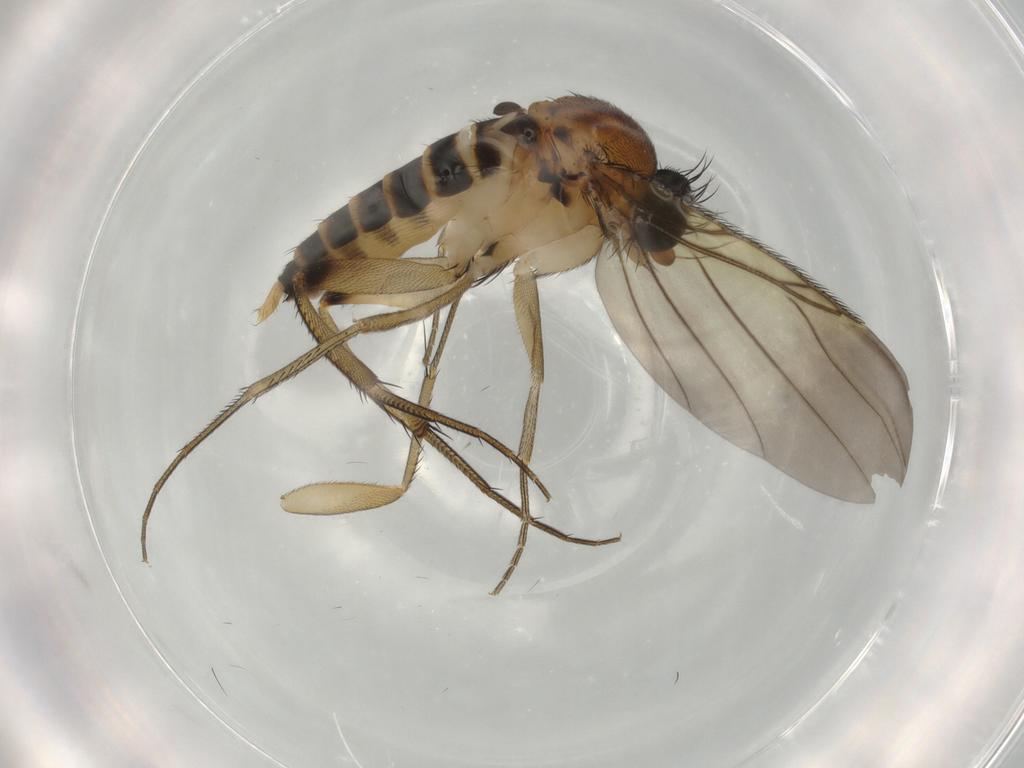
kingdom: Animalia
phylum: Arthropoda
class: Insecta
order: Diptera
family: Phoridae
